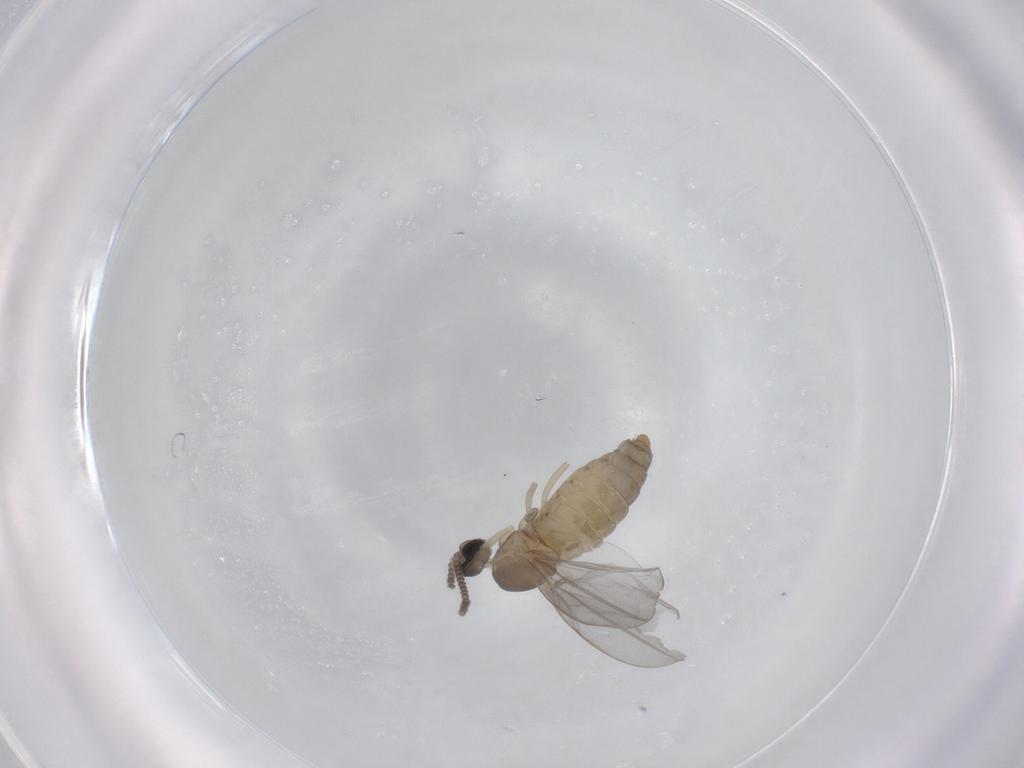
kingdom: Animalia
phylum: Arthropoda
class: Insecta
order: Diptera
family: Cecidomyiidae
